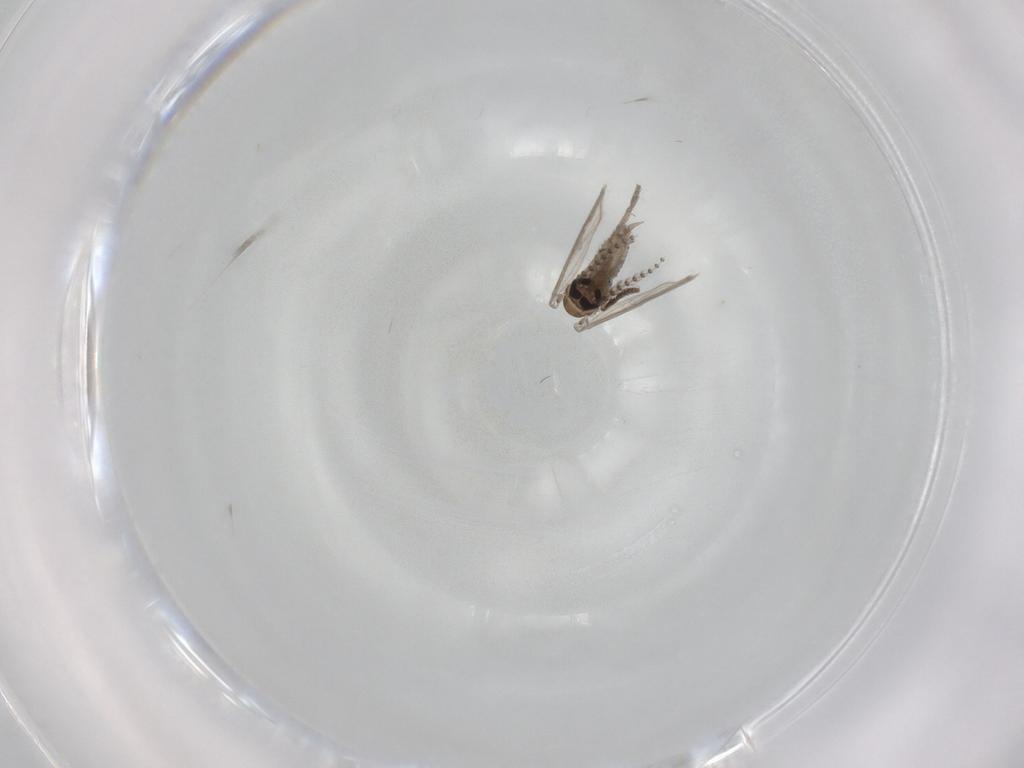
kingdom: Animalia
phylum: Arthropoda
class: Insecta
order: Diptera
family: Psychodidae
